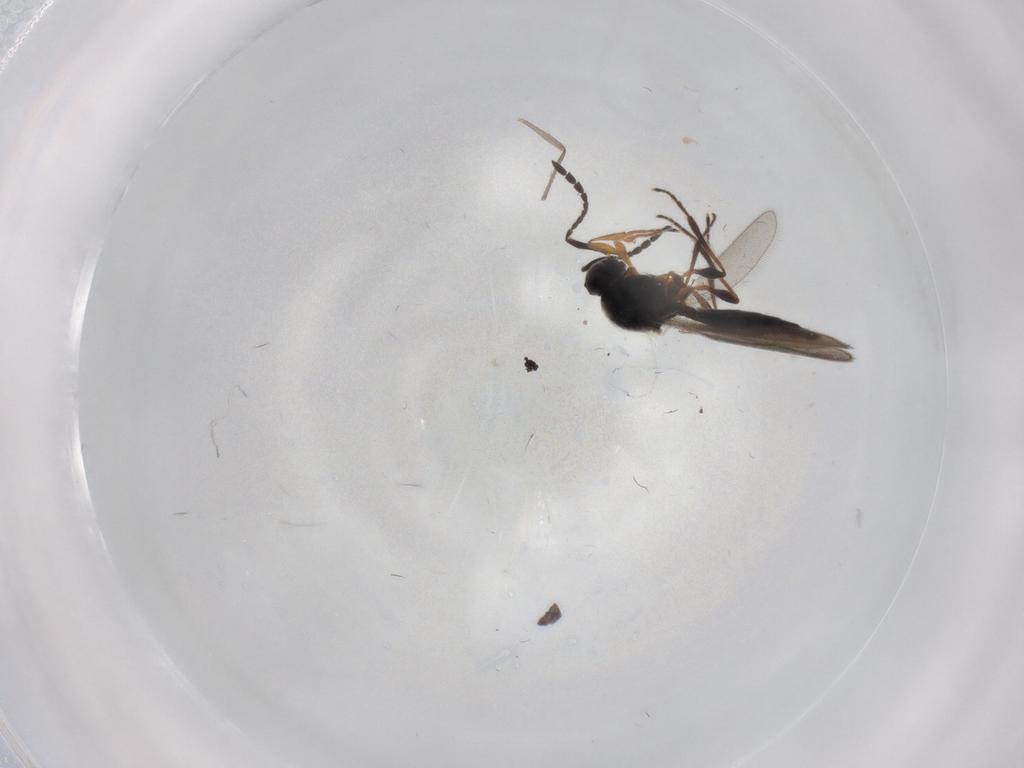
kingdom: Animalia
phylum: Arthropoda
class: Insecta
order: Hymenoptera
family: Platygastridae
